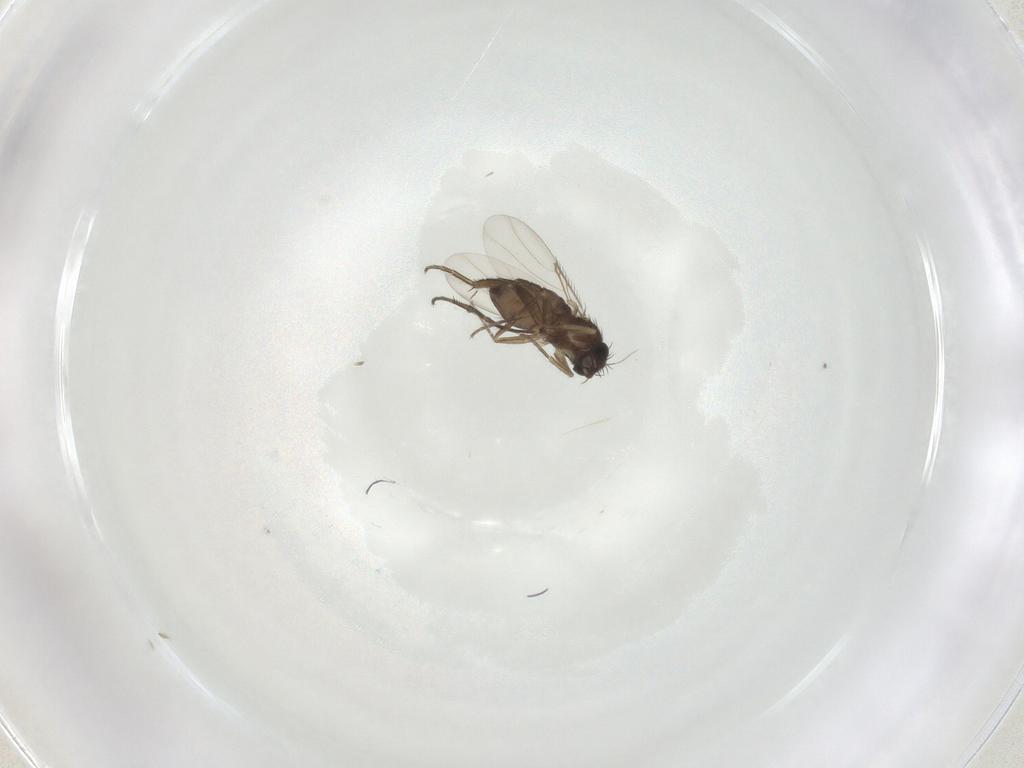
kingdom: Animalia
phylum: Arthropoda
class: Insecta
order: Diptera
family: Phoridae
